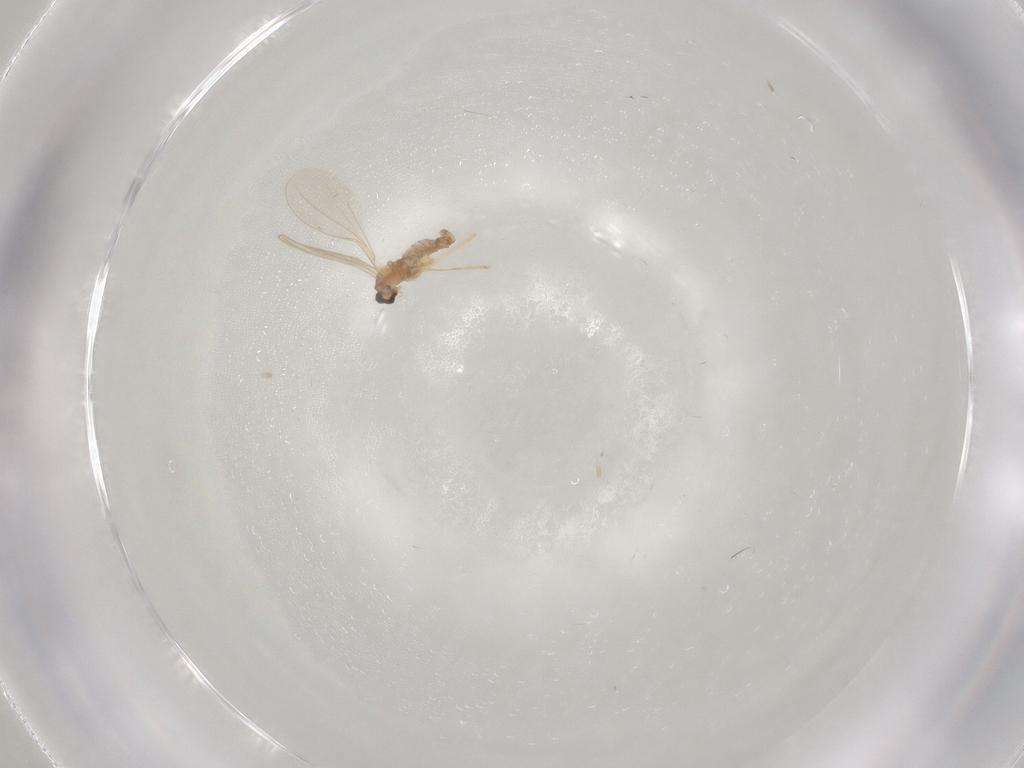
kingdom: Animalia
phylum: Arthropoda
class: Insecta
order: Diptera
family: Cecidomyiidae
